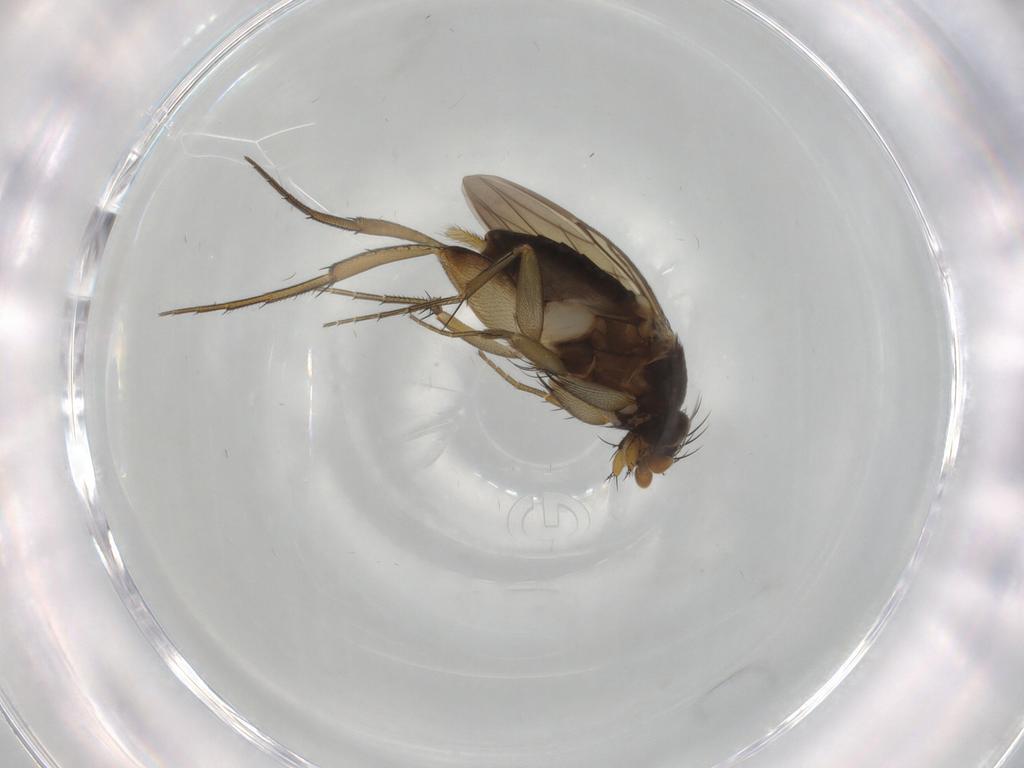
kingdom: Animalia
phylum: Arthropoda
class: Insecta
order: Diptera
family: Phoridae
